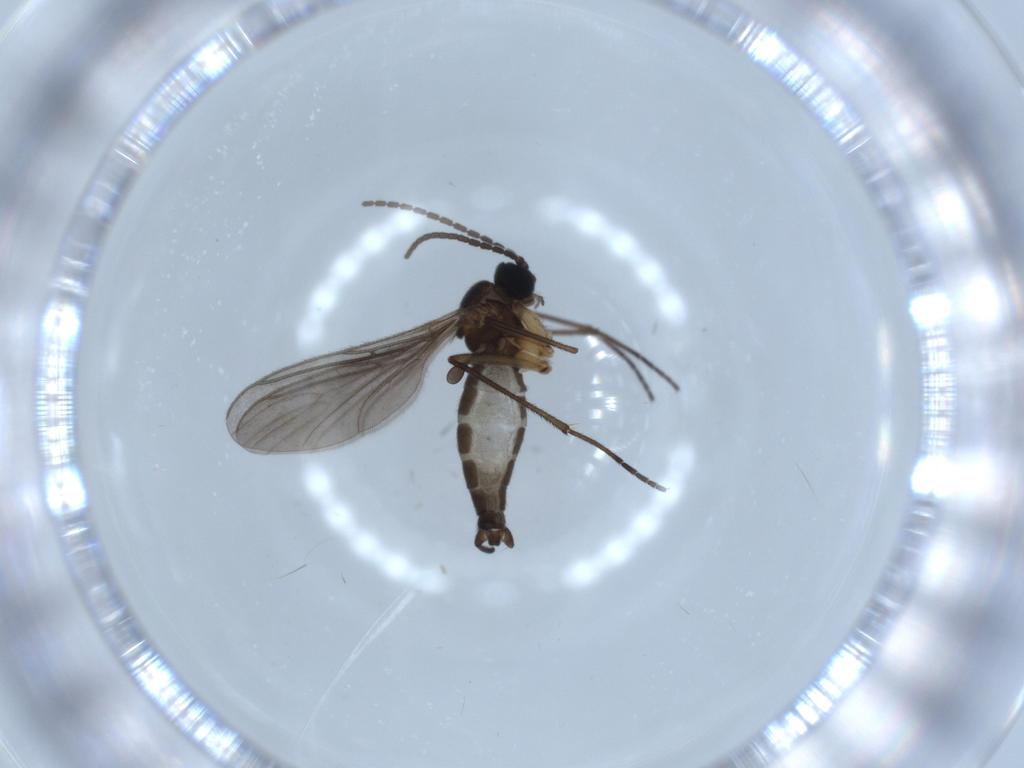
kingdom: Animalia
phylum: Arthropoda
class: Insecta
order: Diptera
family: Sciaridae
